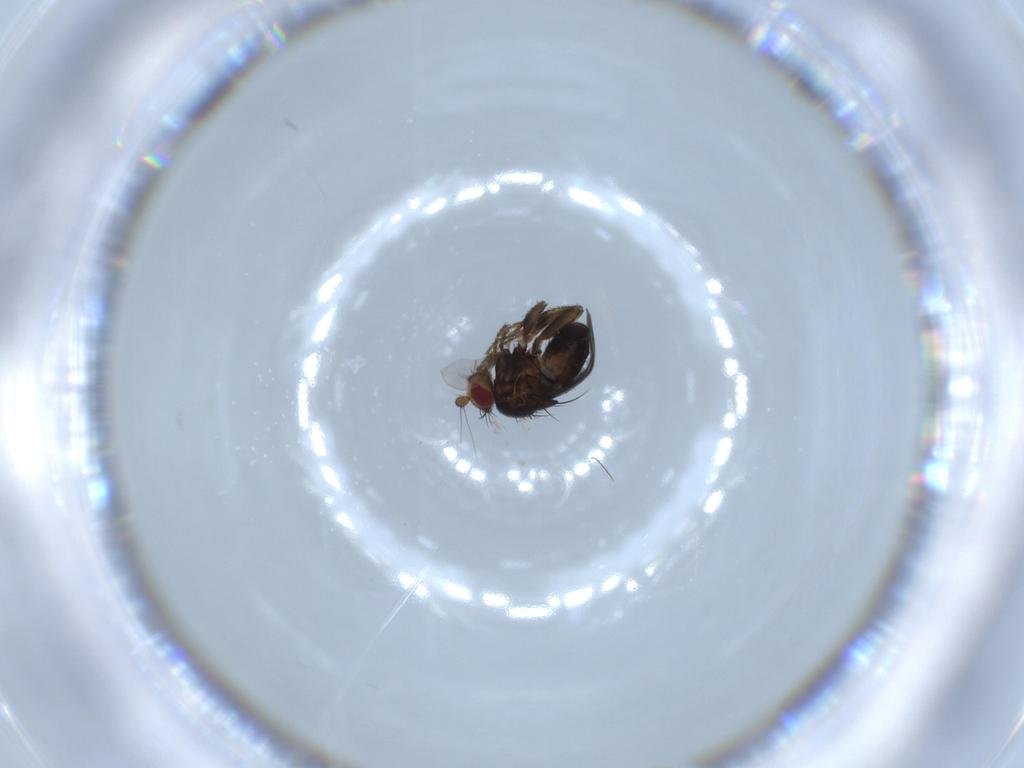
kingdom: Animalia
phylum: Arthropoda
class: Insecta
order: Diptera
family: Sphaeroceridae
